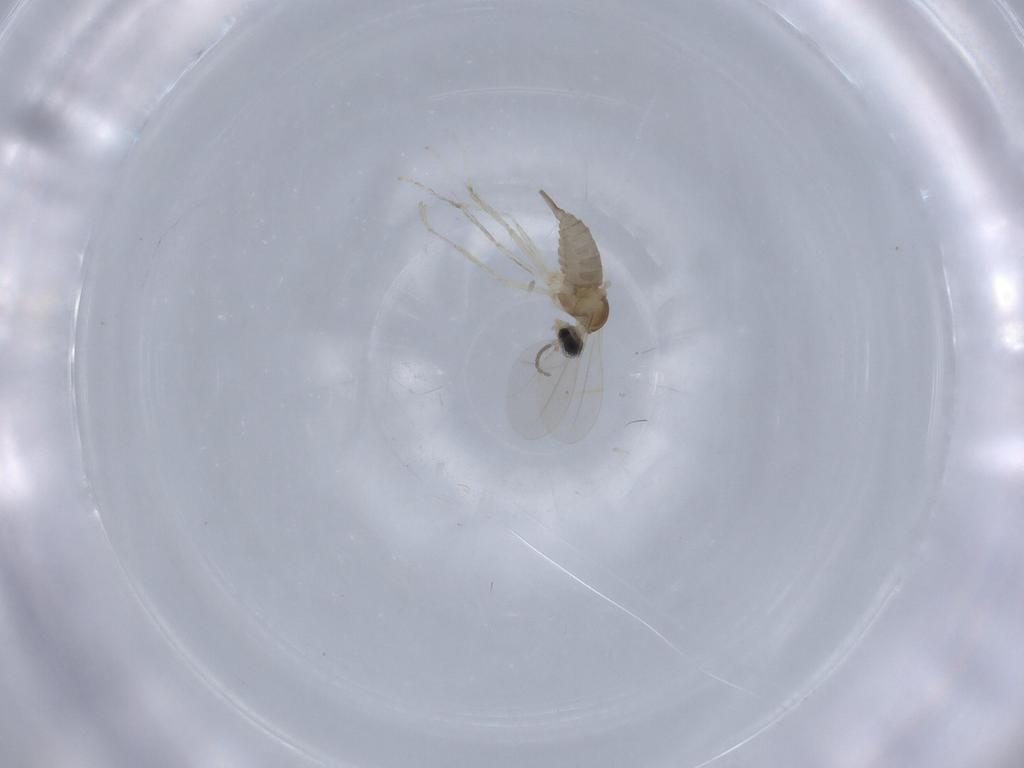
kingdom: Animalia
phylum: Arthropoda
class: Insecta
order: Diptera
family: Cecidomyiidae
